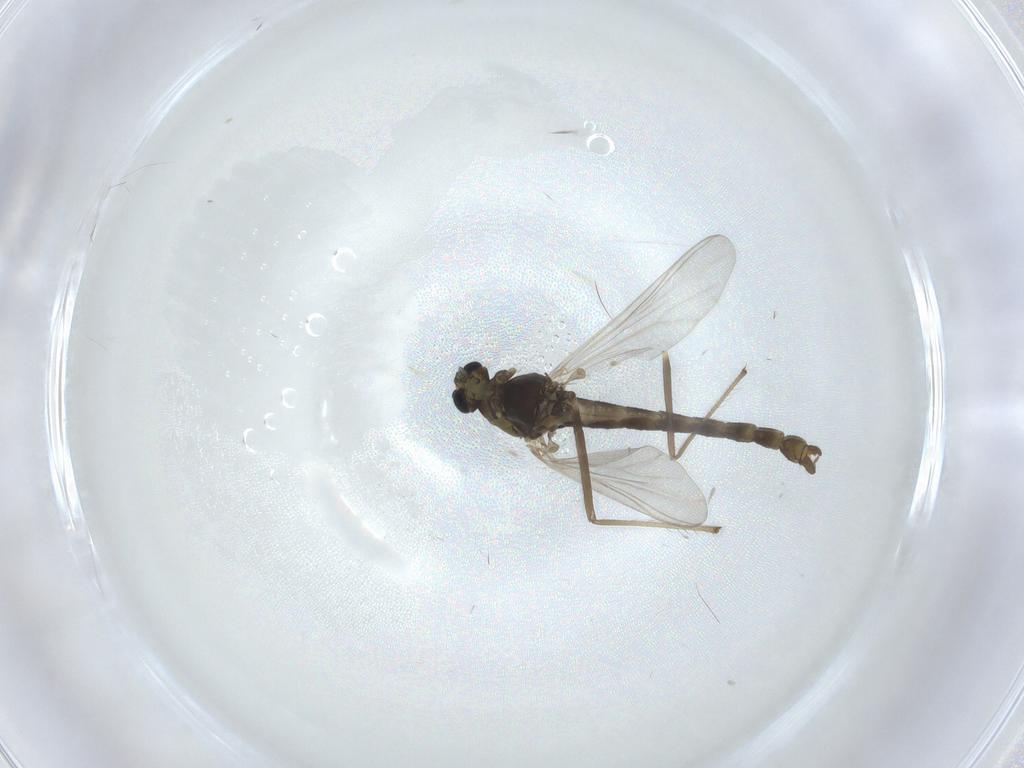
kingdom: Animalia
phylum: Arthropoda
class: Insecta
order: Diptera
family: Chironomidae
